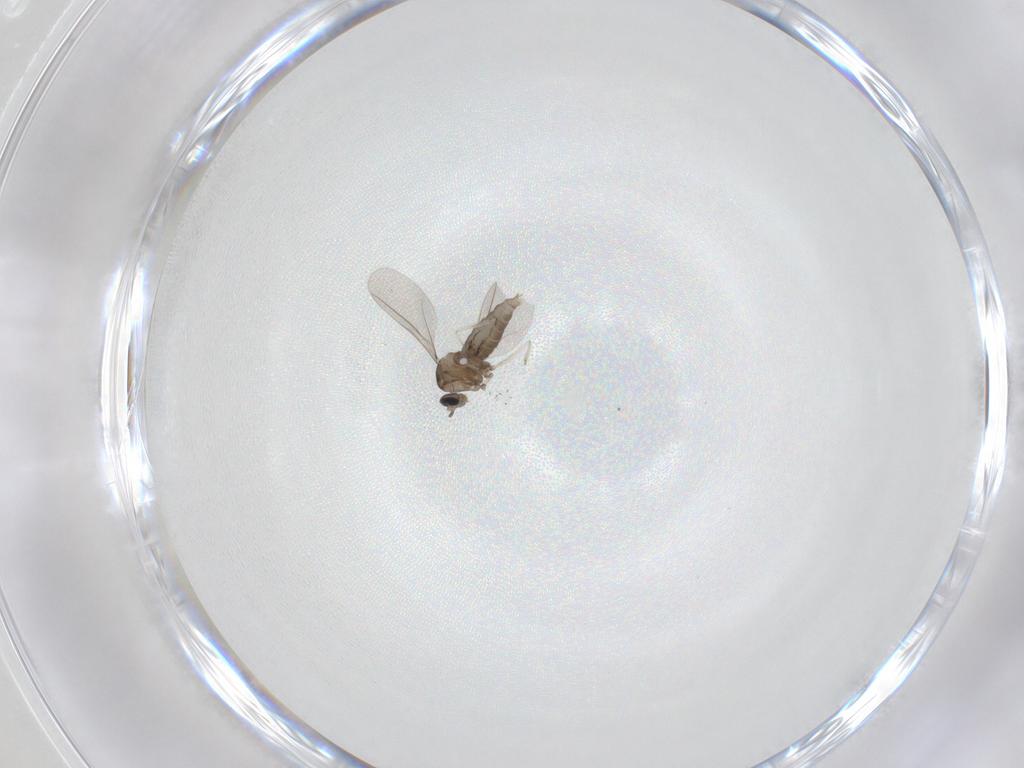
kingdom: Animalia
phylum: Arthropoda
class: Insecta
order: Diptera
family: Cecidomyiidae
